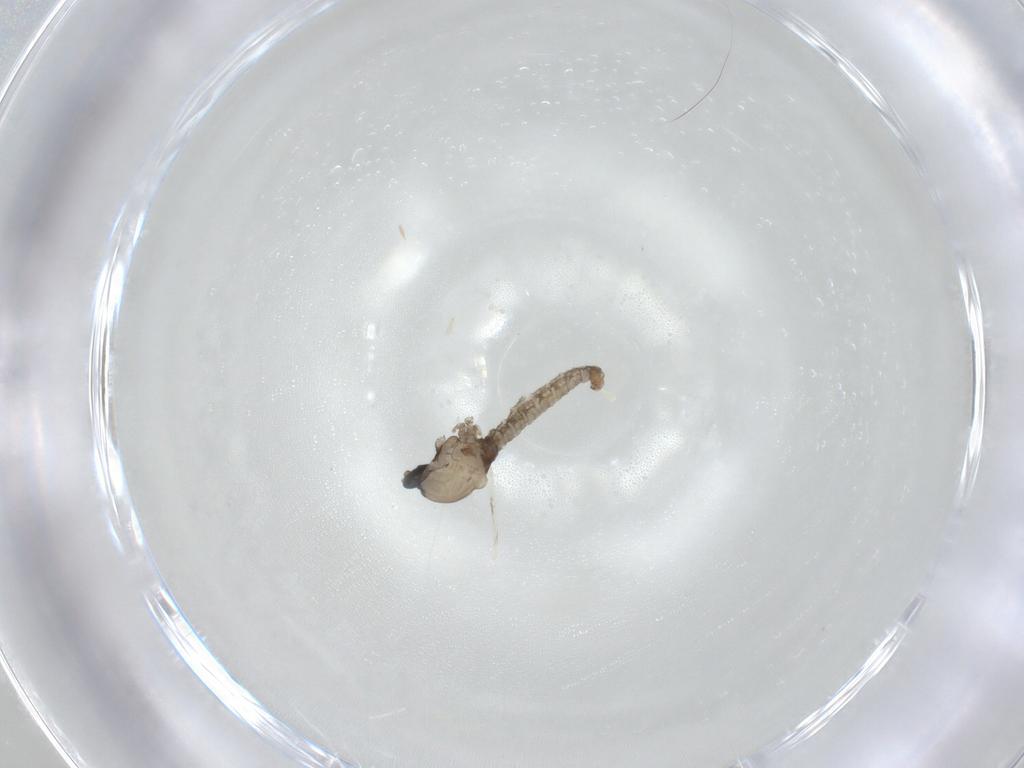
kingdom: Animalia
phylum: Arthropoda
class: Insecta
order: Diptera
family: Cecidomyiidae
